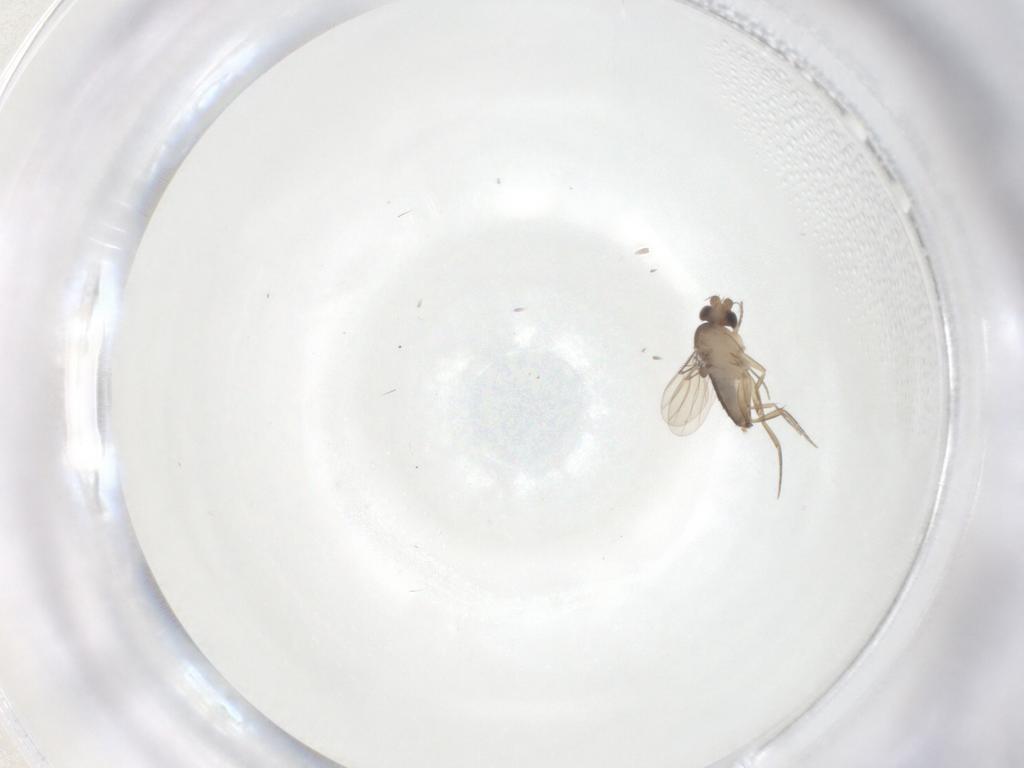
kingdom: Animalia
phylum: Arthropoda
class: Insecta
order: Diptera
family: Phoridae
